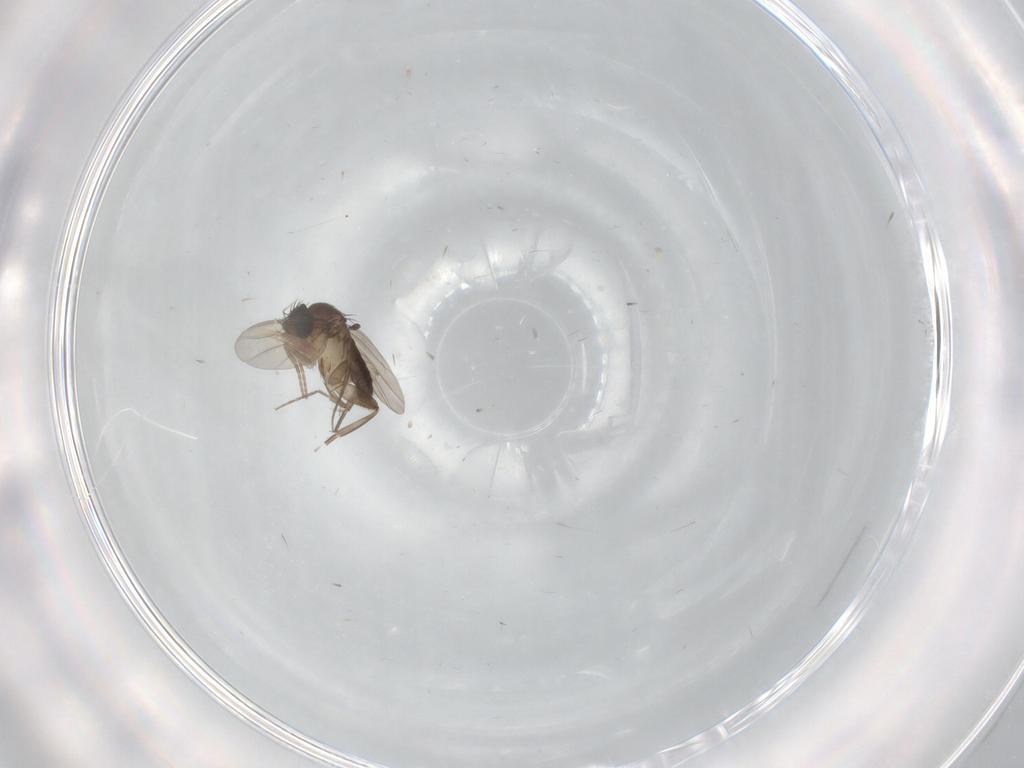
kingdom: Animalia
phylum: Arthropoda
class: Insecta
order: Diptera
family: Phoridae
